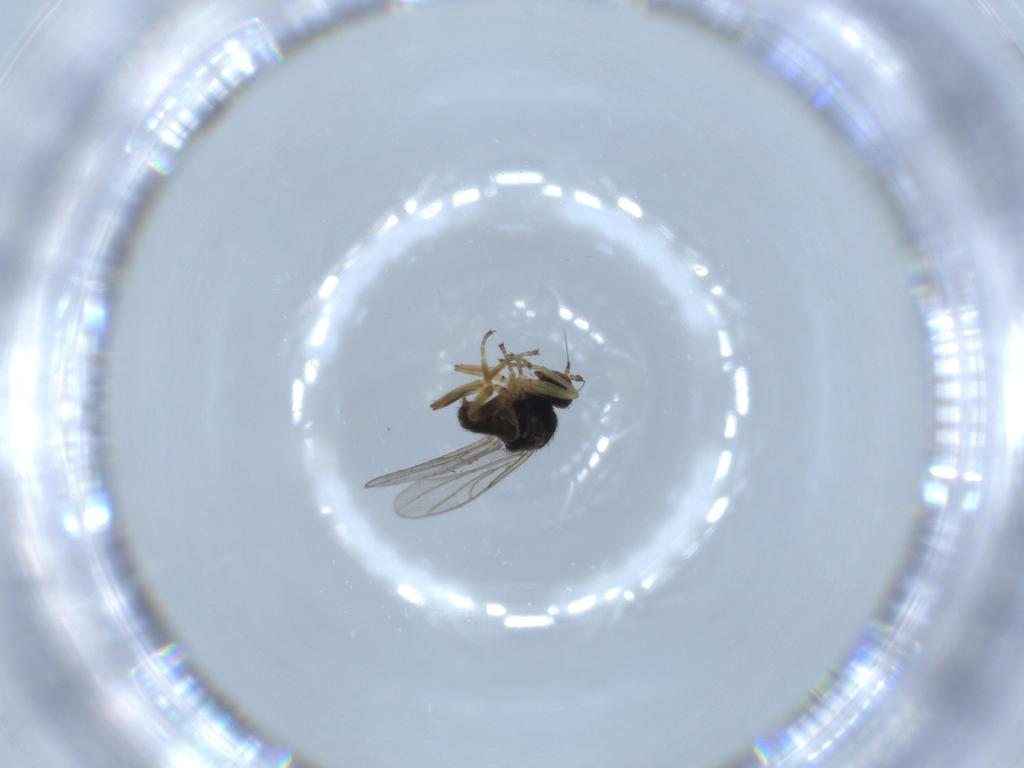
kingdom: Animalia
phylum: Arthropoda
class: Insecta
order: Diptera
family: Hybotidae
